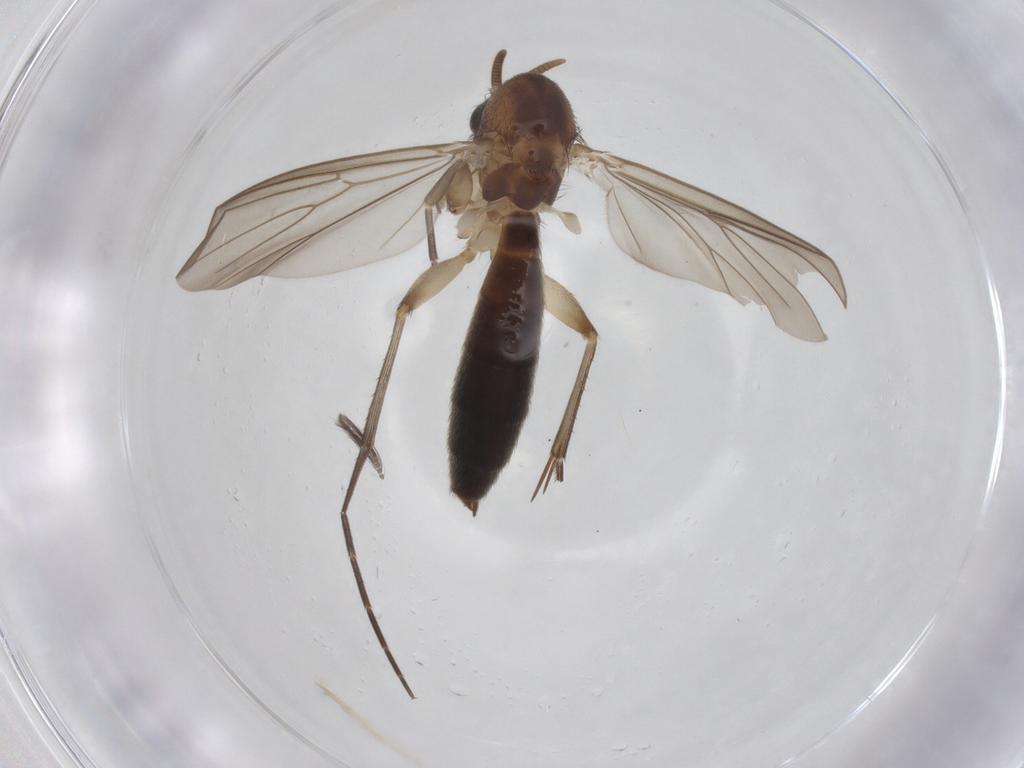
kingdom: Animalia
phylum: Arthropoda
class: Insecta
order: Diptera
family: Mycetophilidae
